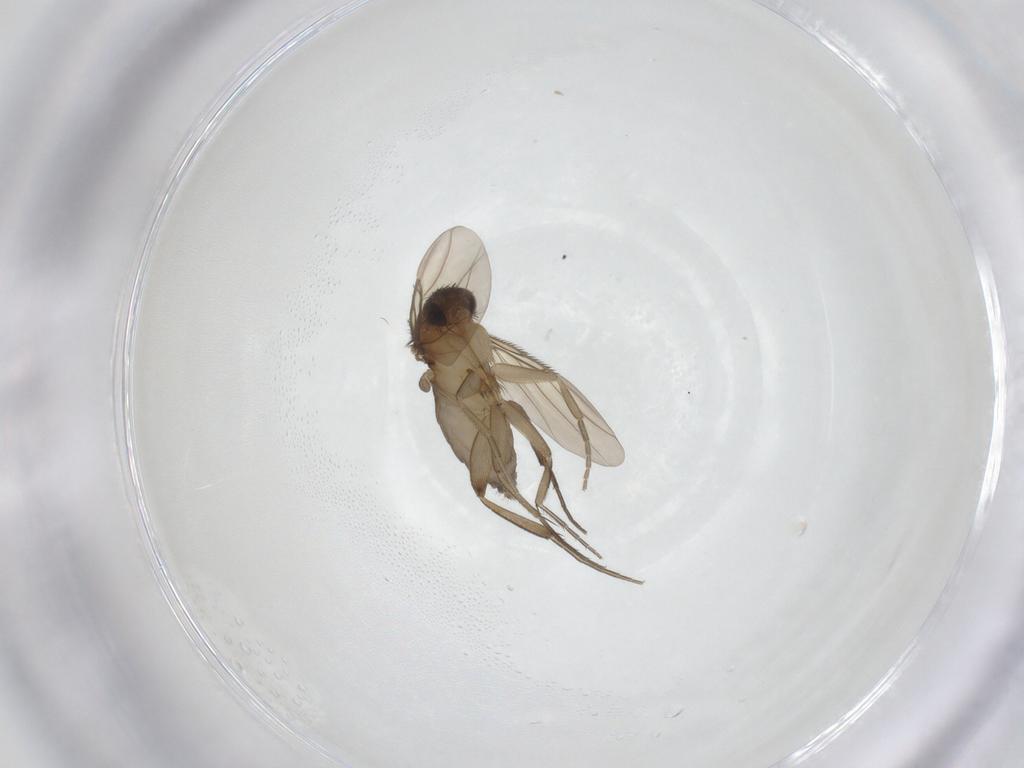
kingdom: Animalia
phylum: Arthropoda
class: Insecta
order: Diptera
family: Phoridae
